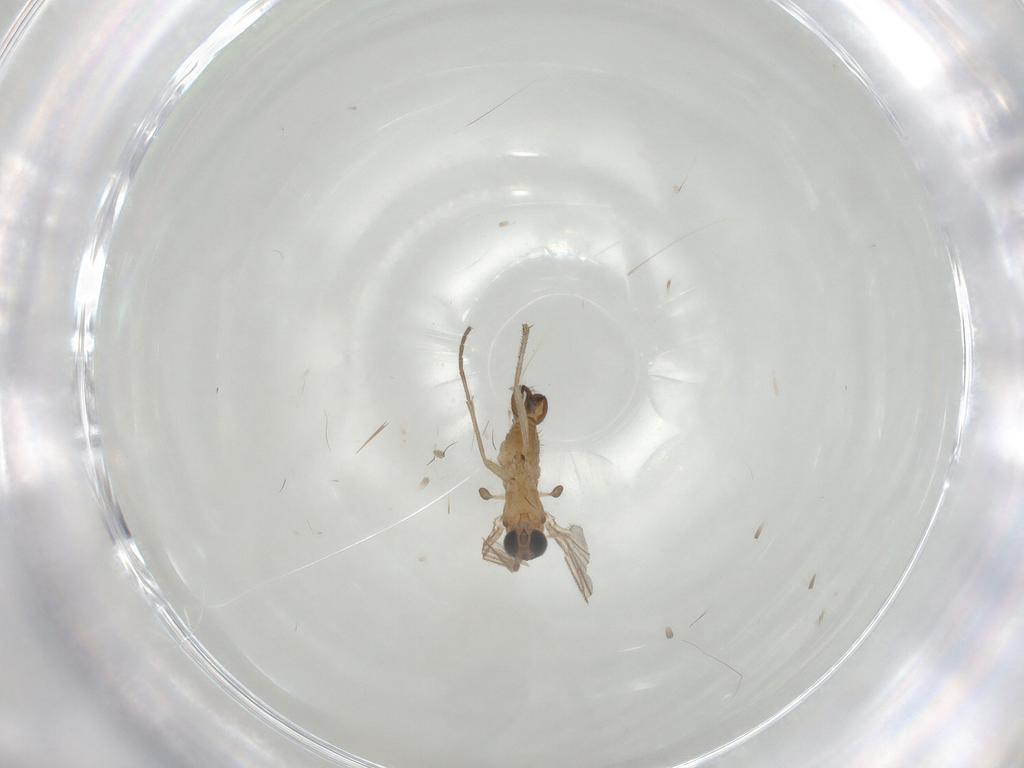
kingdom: Animalia
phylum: Arthropoda
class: Insecta
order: Diptera
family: Sciaridae
